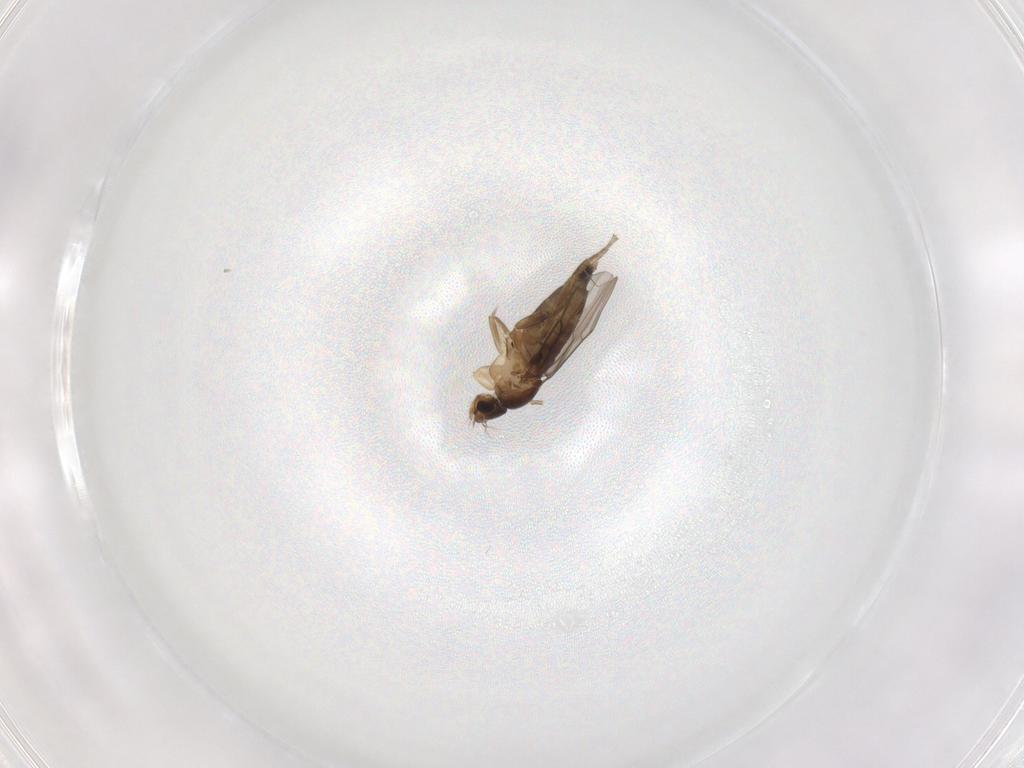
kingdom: Animalia
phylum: Arthropoda
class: Insecta
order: Diptera
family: Phoridae
